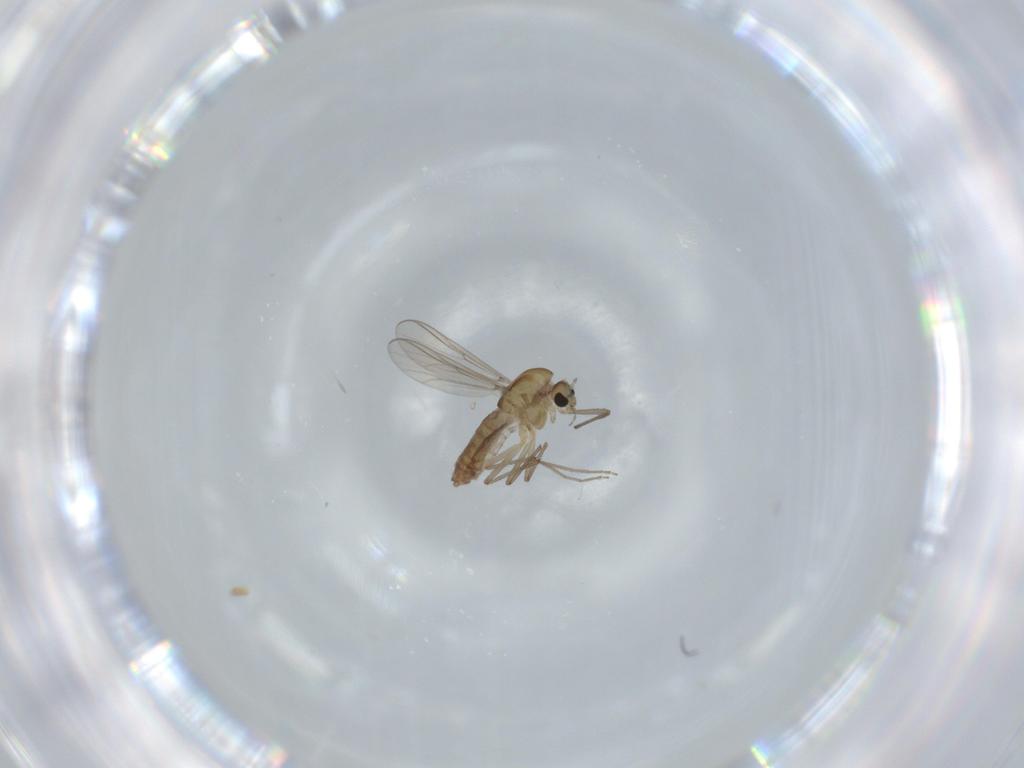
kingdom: Animalia
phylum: Arthropoda
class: Insecta
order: Diptera
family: Chironomidae
